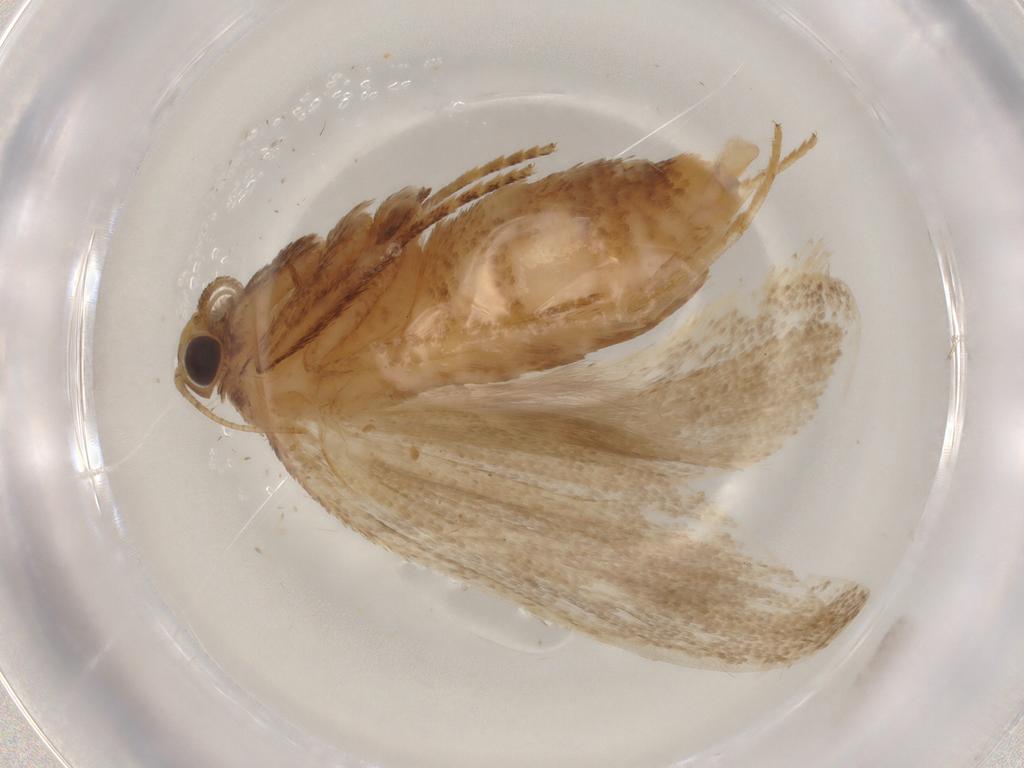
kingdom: Animalia
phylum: Arthropoda
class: Insecta
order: Lepidoptera
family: Autostichidae
